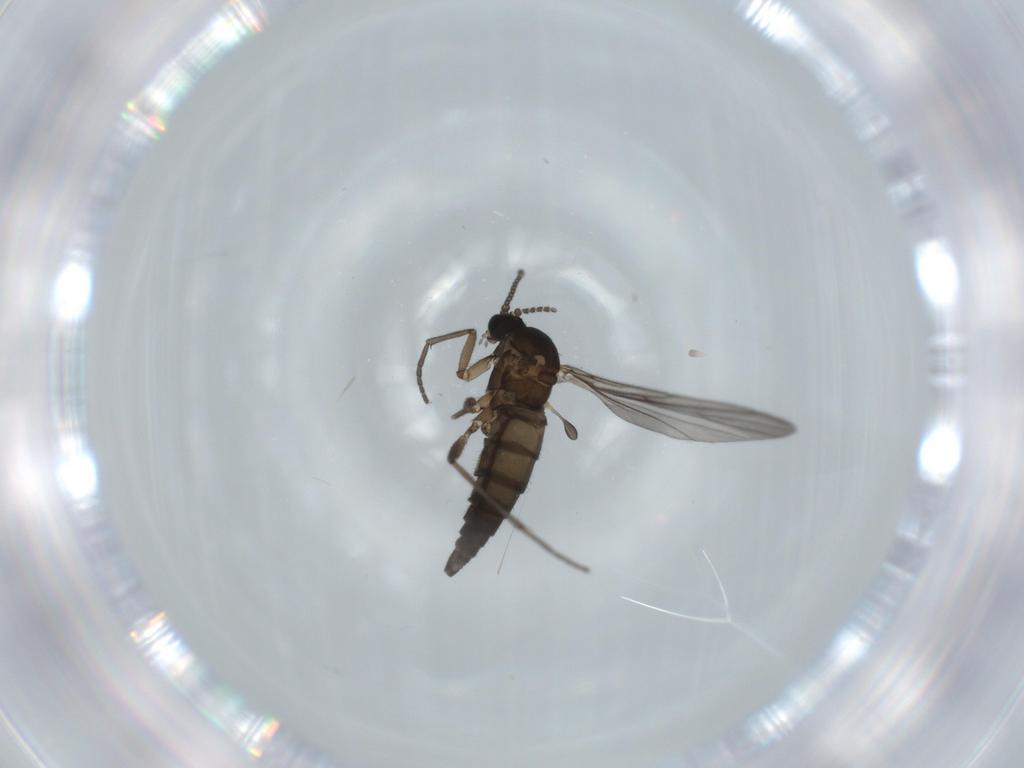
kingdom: Animalia
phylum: Arthropoda
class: Insecta
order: Diptera
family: Sciaridae
